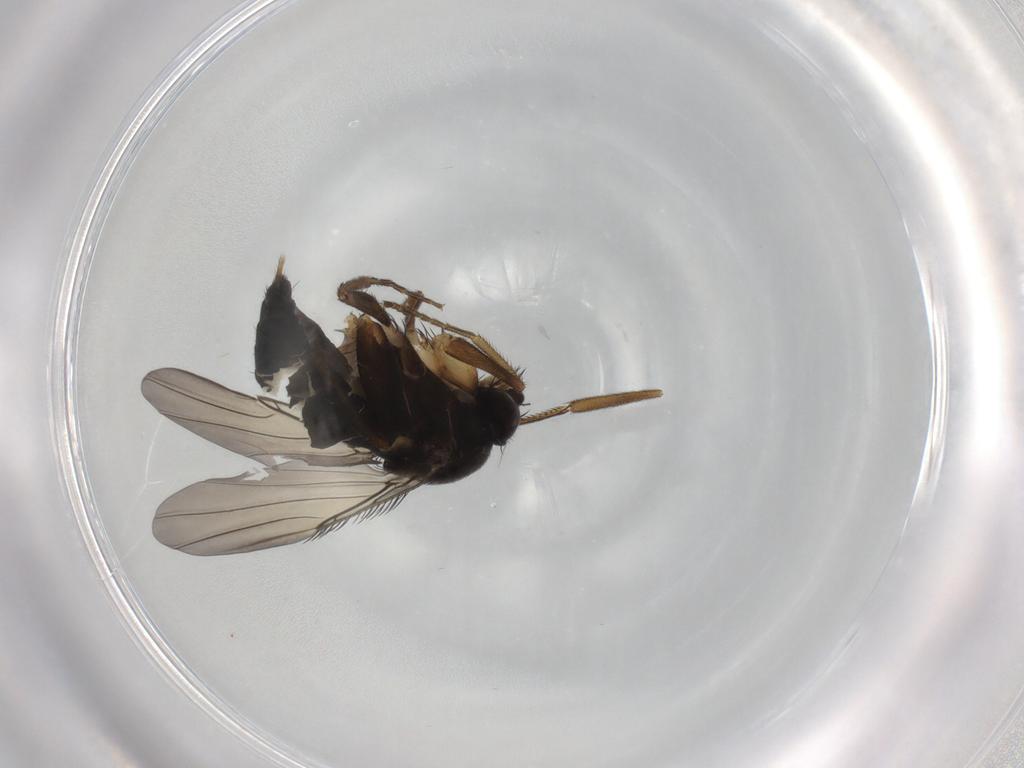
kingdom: Animalia
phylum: Arthropoda
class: Insecta
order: Diptera
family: Phoridae
